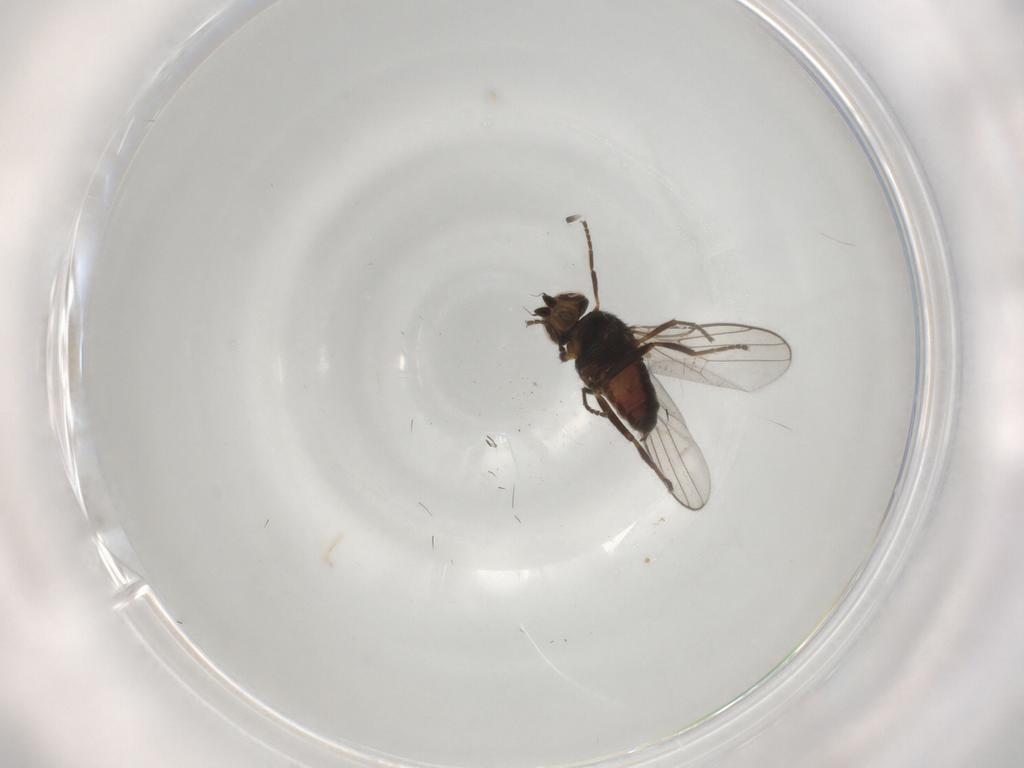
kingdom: Animalia
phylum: Arthropoda
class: Insecta
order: Diptera
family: Chloropidae
